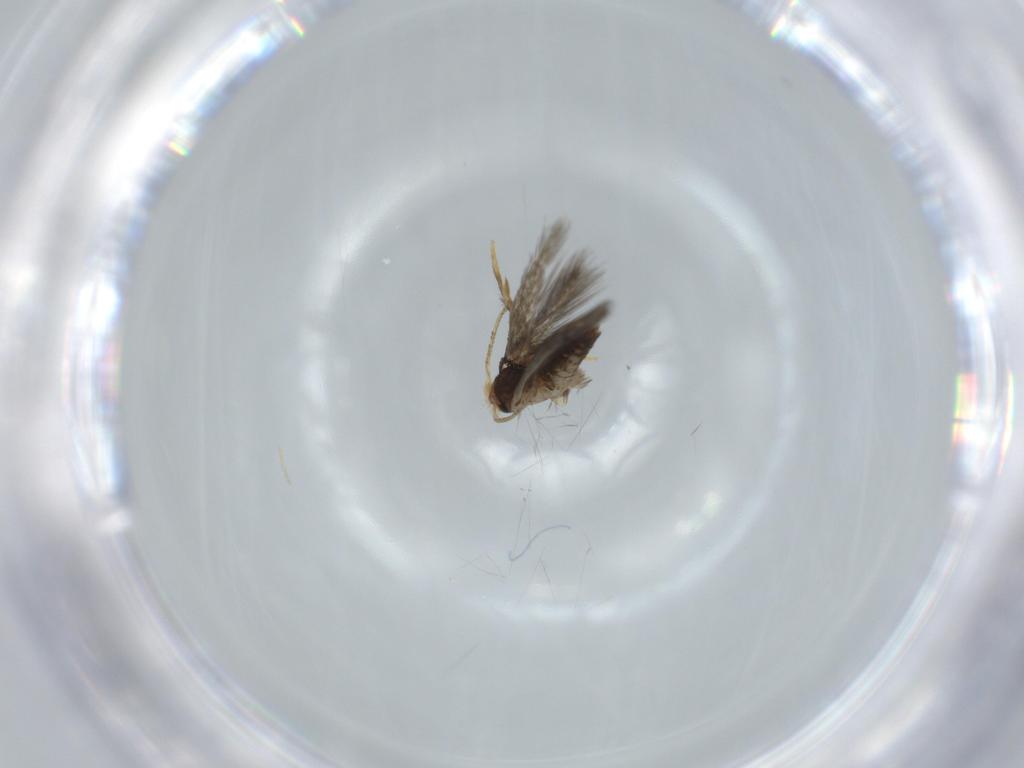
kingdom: Animalia
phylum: Arthropoda
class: Insecta
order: Lepidoptera
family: Nepticulidae
